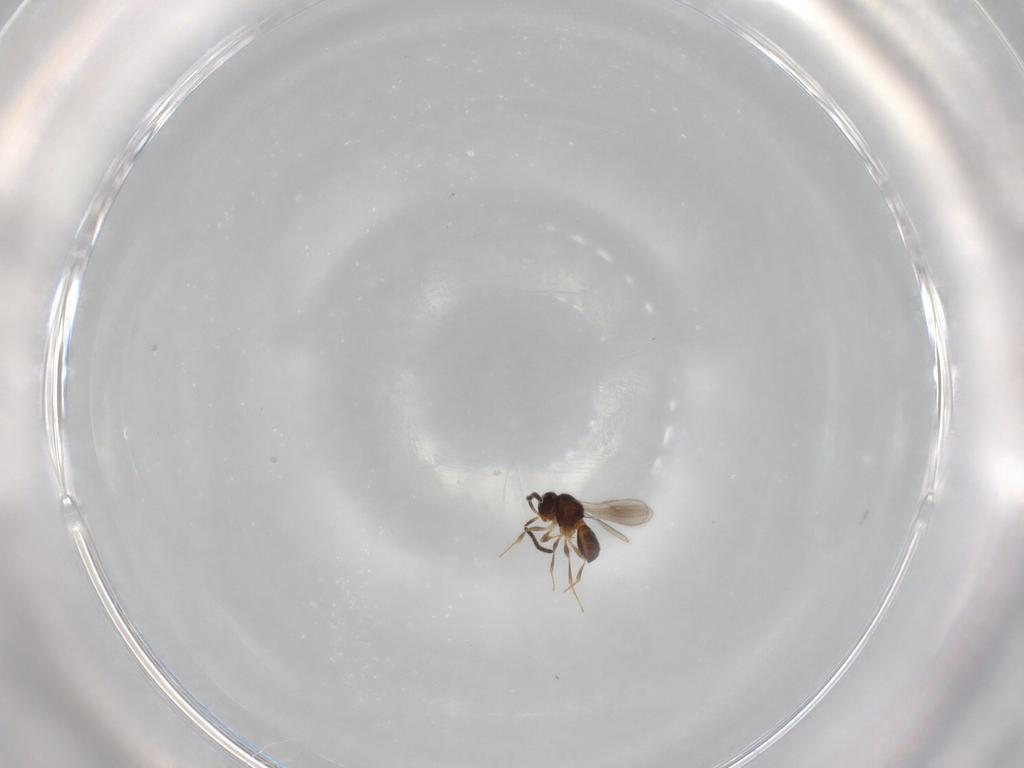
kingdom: Animalia
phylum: Arthropoda
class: Insecta
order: Hymenoptera
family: Scelionidae
